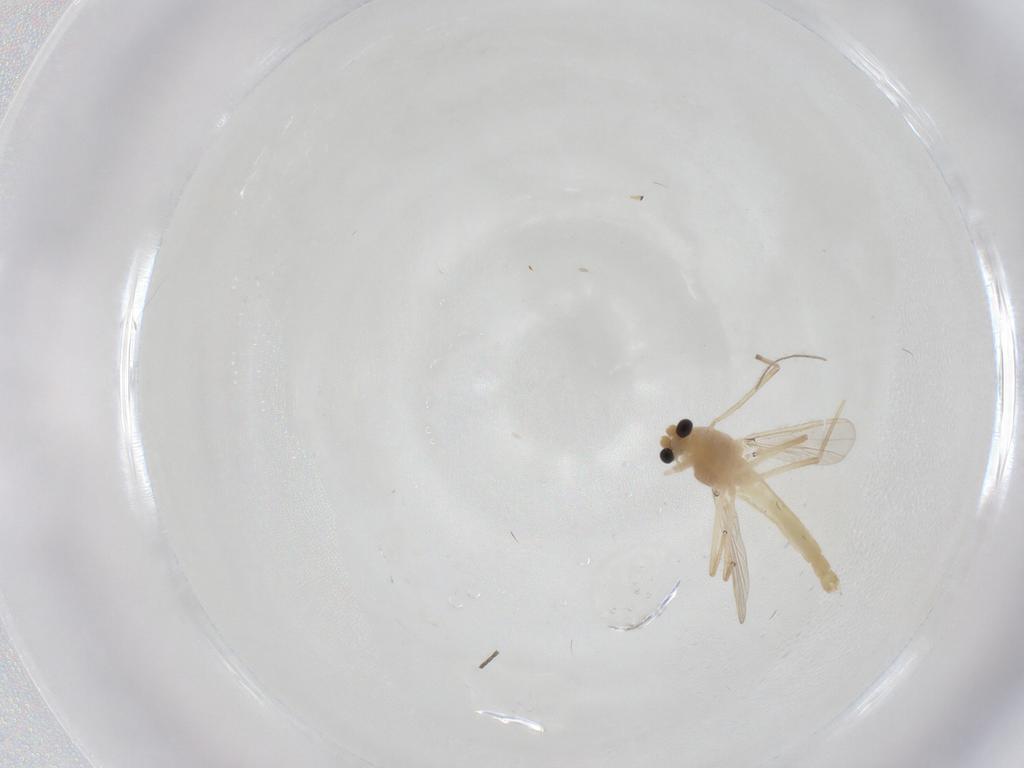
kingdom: Animalia
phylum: Arthropoda
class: Insecta
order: Diptera
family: Chironomidae
